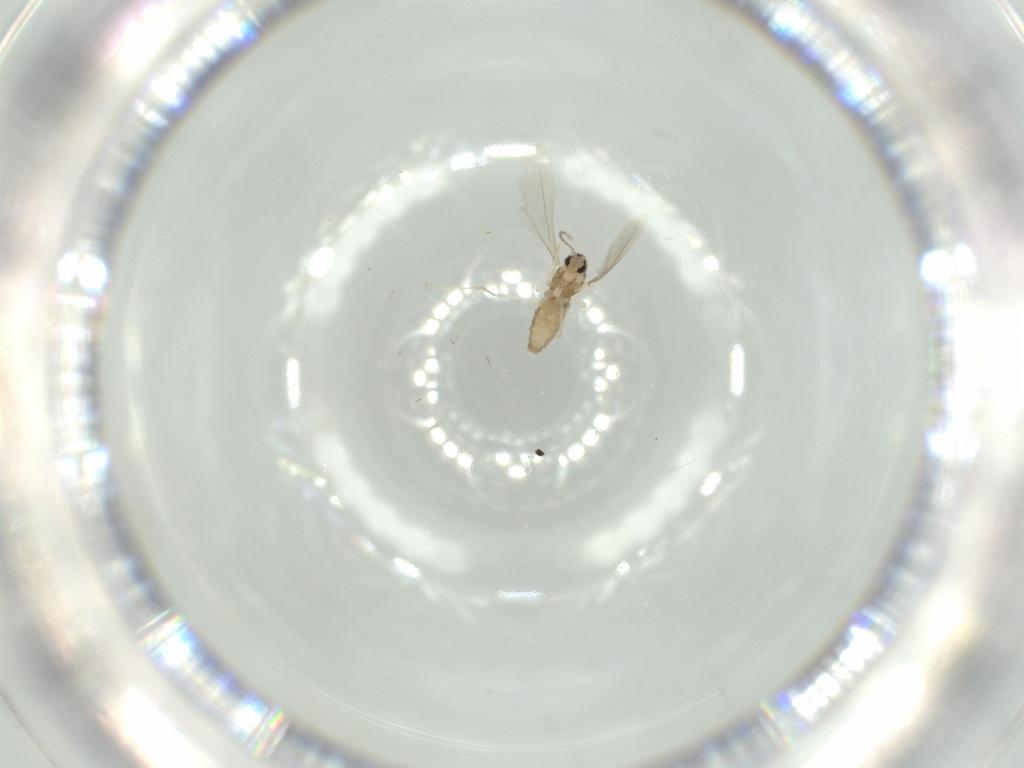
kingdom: Animalia
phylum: Arthropoda
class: Insecta
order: Diptera
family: Cecidomyiidae
